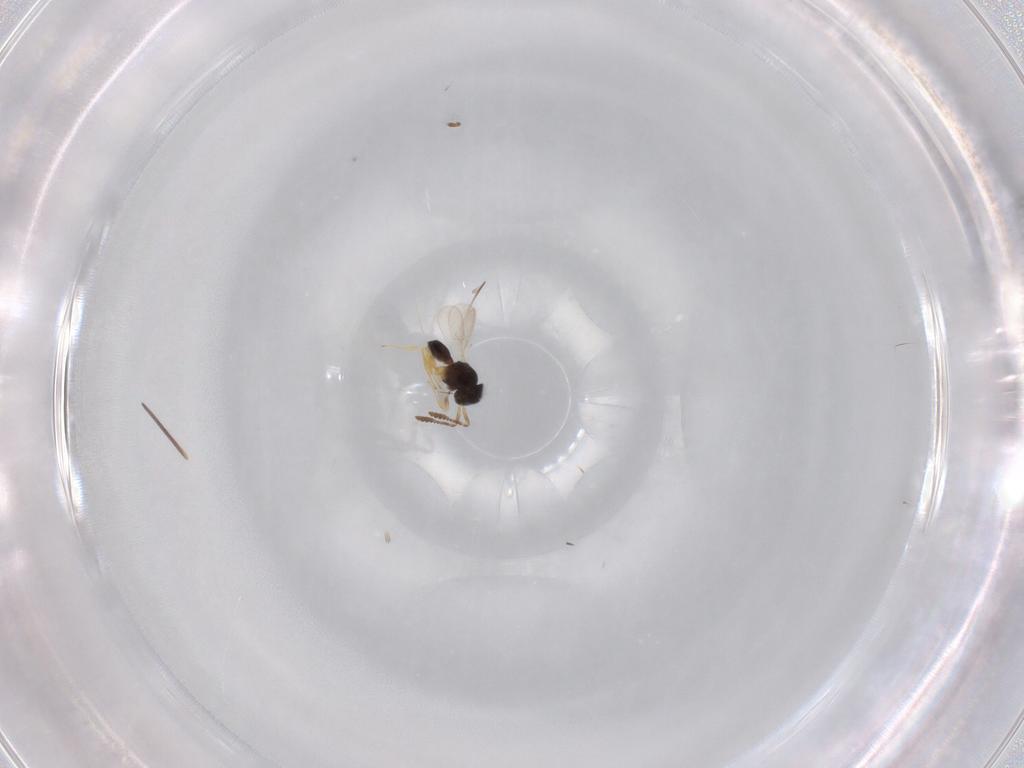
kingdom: Animalia
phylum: Arthropoda
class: Insecta
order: Hymenoptera
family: Scelionidae
